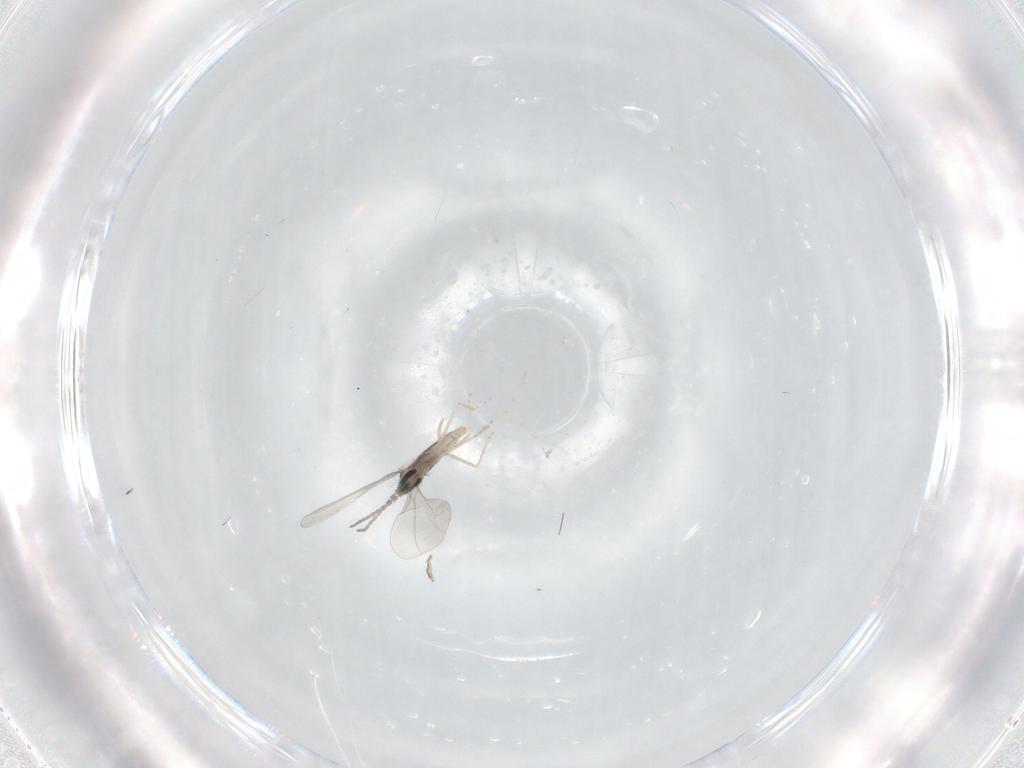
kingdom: Animalia
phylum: Arthropoda
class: Insecta
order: Diptera
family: Cecidomyiidae
